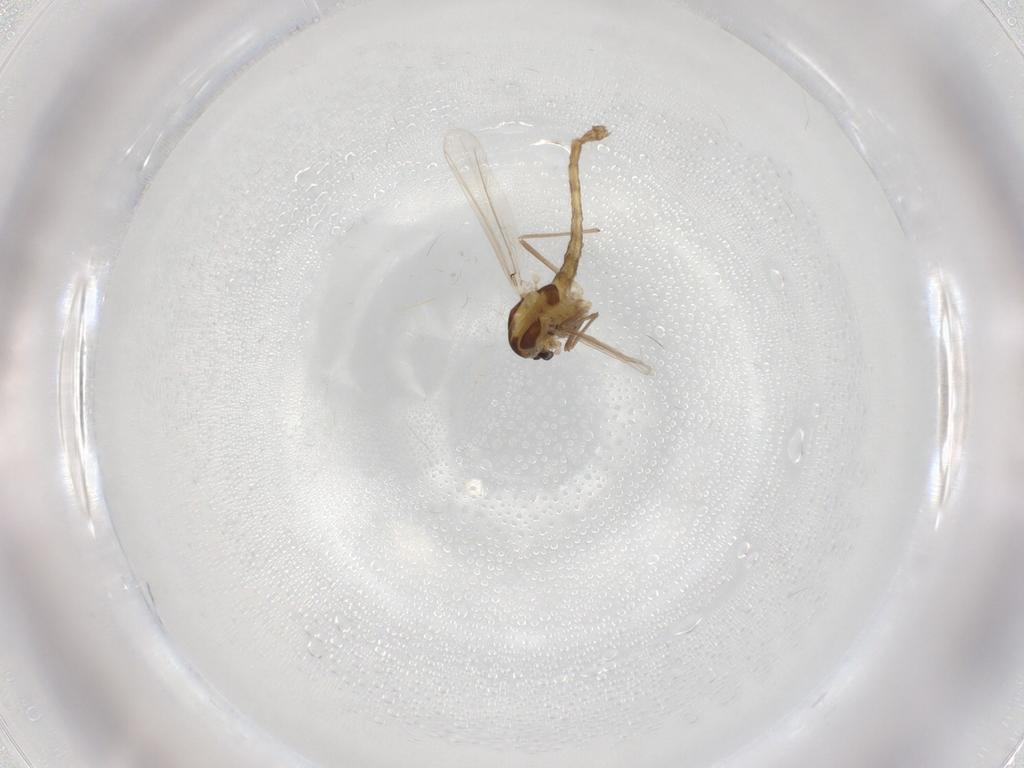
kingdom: Animalia
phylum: Arthropoda
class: Insecta
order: Diptera
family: Chironomidae
